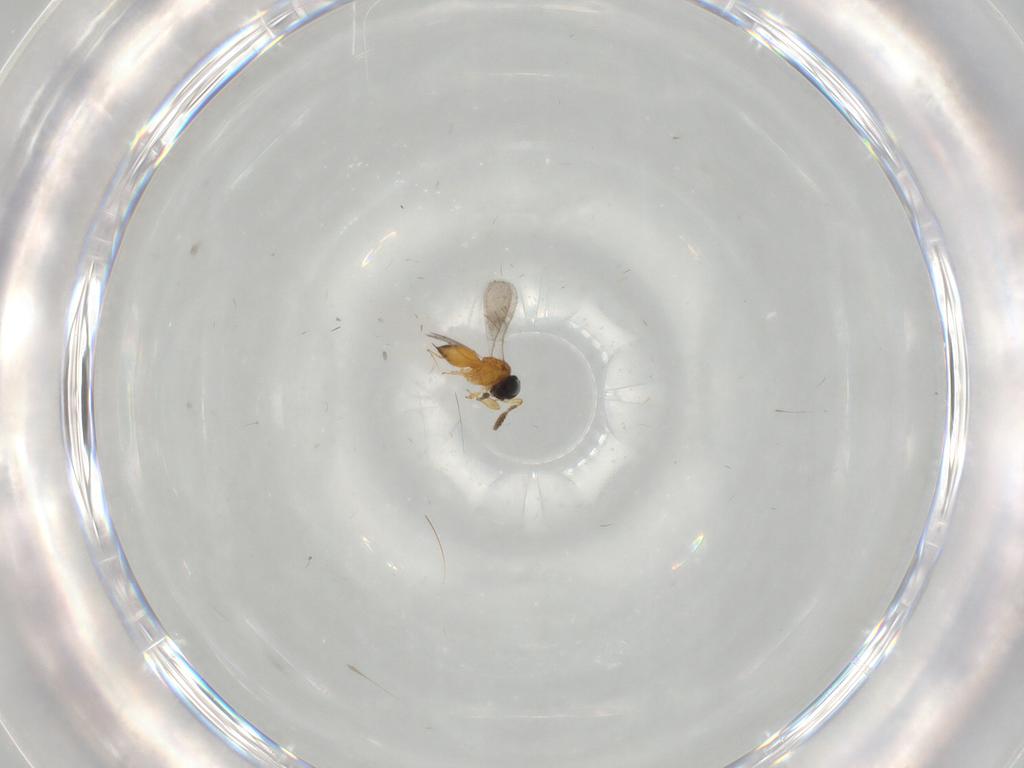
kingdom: Animalia
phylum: Arthropoda
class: Insecta
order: Hymenoptera
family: Scelionidae
